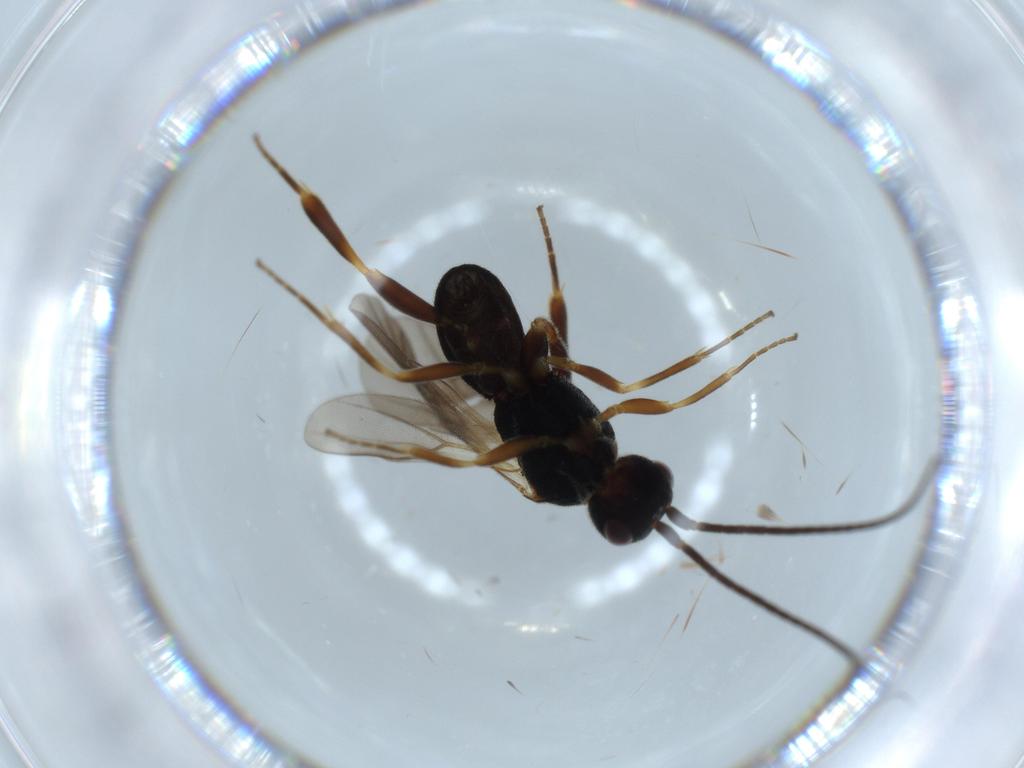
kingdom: Animalia
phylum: Arthropoda
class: Insecta
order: Hymenoptera
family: Braconidae
